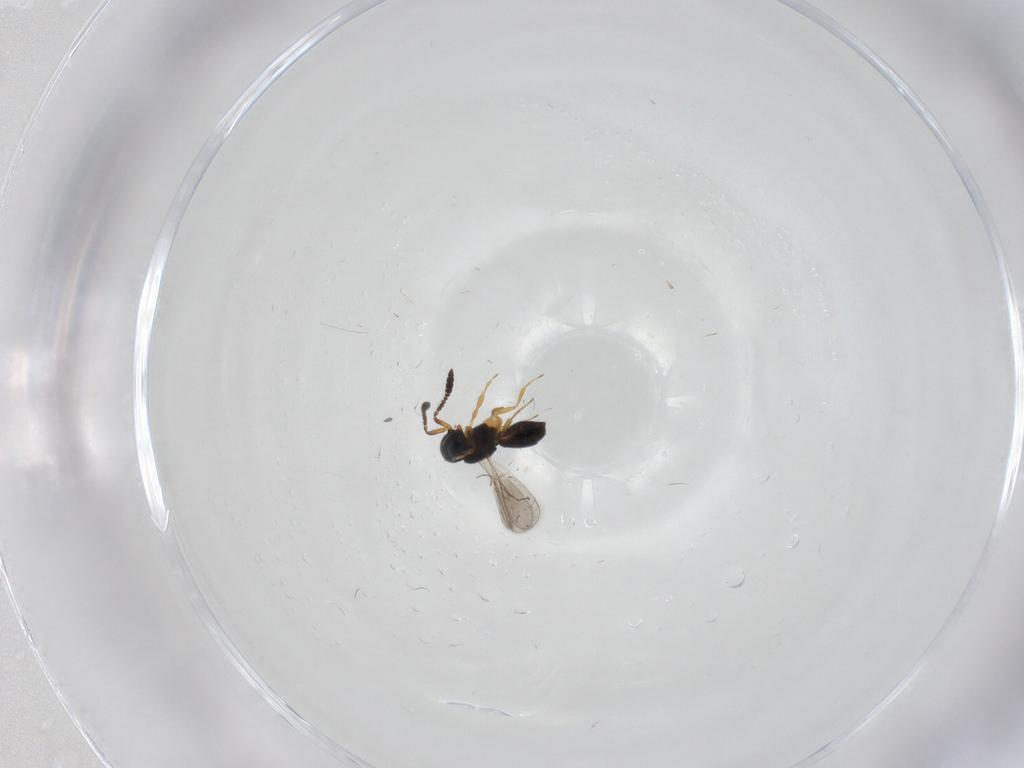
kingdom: Animalia
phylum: Arthropoda
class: Insecta
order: Hymenoptera
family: Scelionidae
